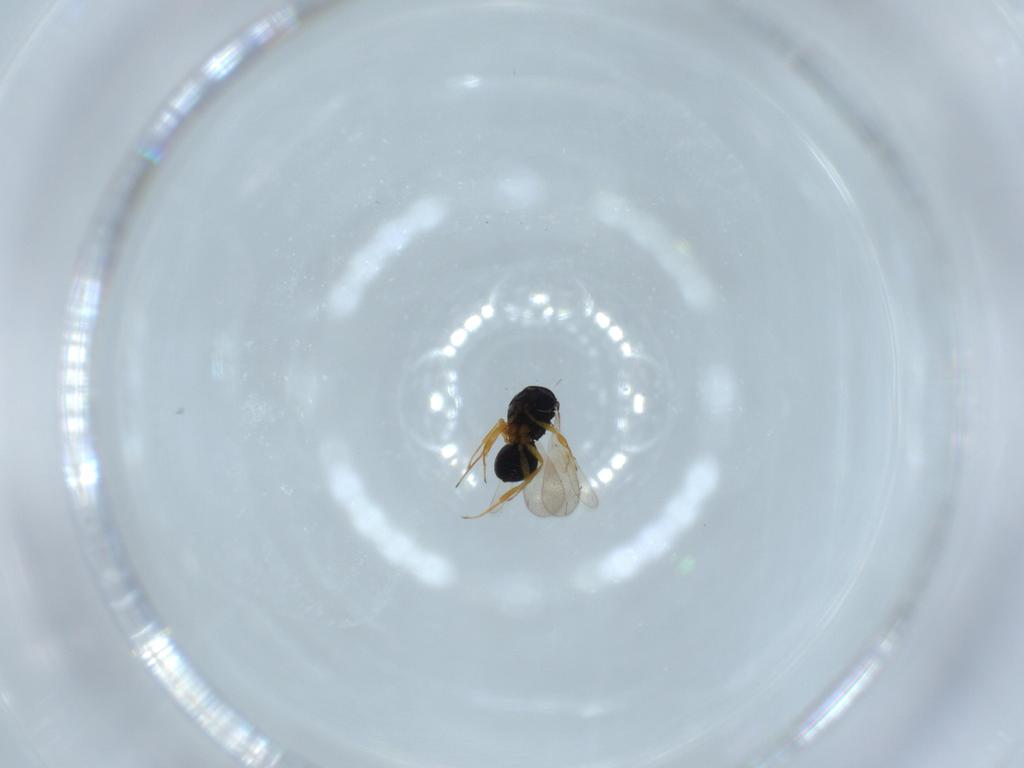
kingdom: Animalia
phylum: Arthropoda
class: Insecta
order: Hymenoptera
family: Scelionidae
